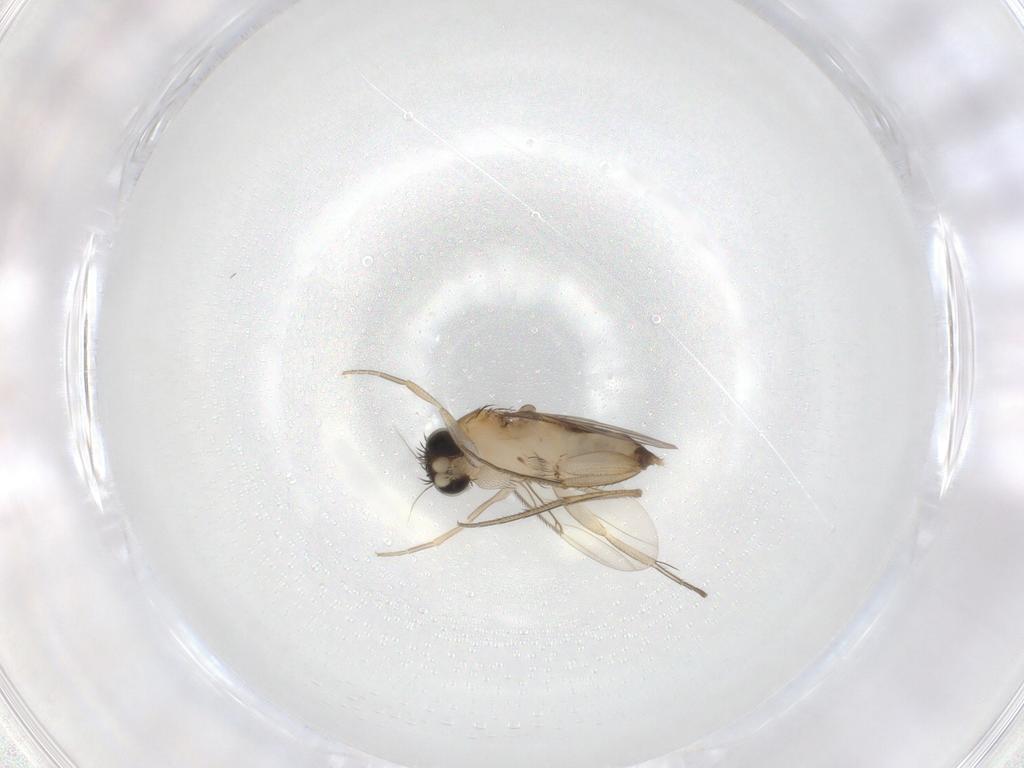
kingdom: Animalia
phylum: Arthropoda
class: Insecta
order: Diptera
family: Phoridae
